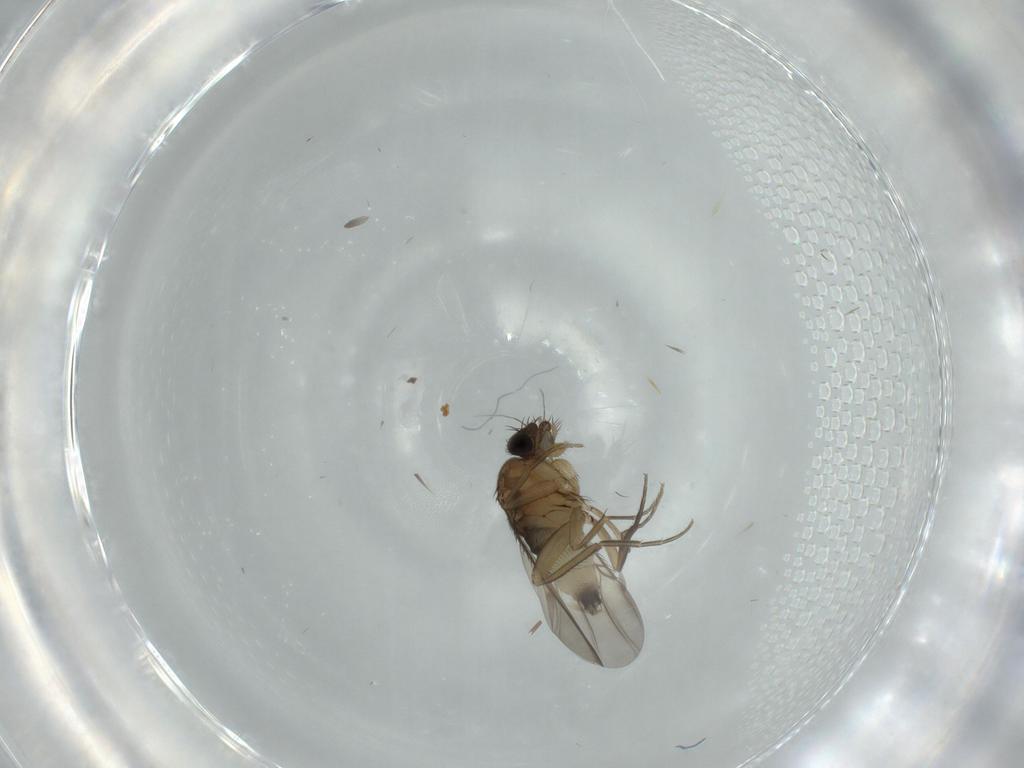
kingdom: Animalia
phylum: Arthropoda
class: Insecta
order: Diptera
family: Phoridae
